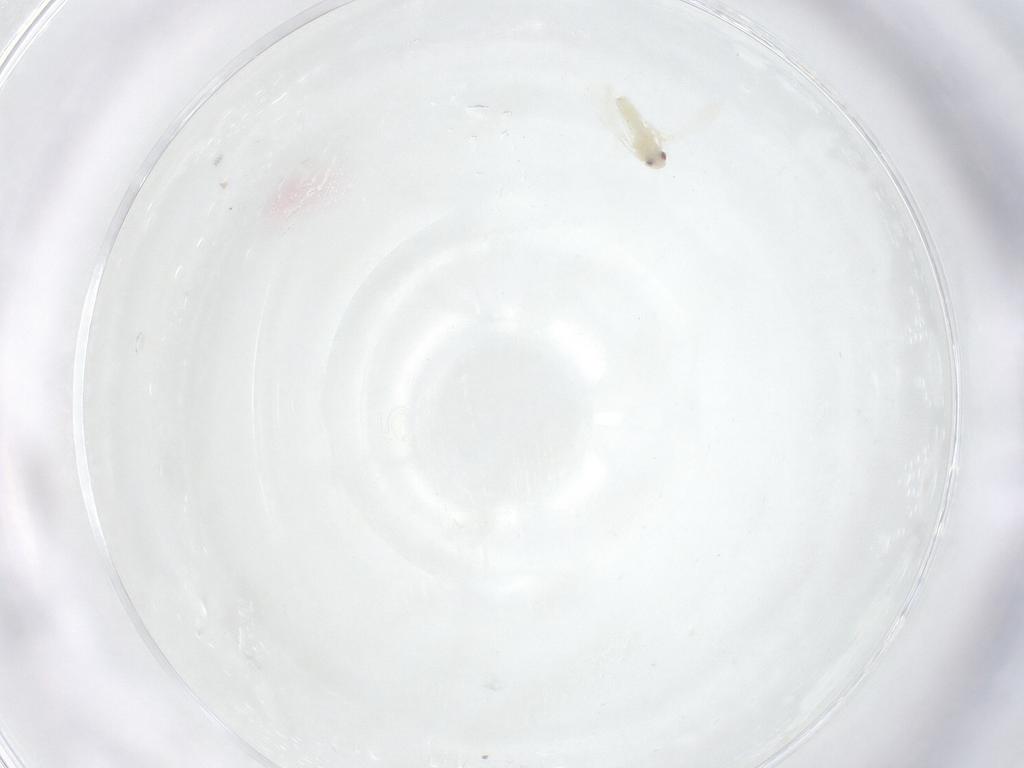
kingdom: Animalia
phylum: Arthropoda
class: Insecta
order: Hemiptera
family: Aleyrodidae
